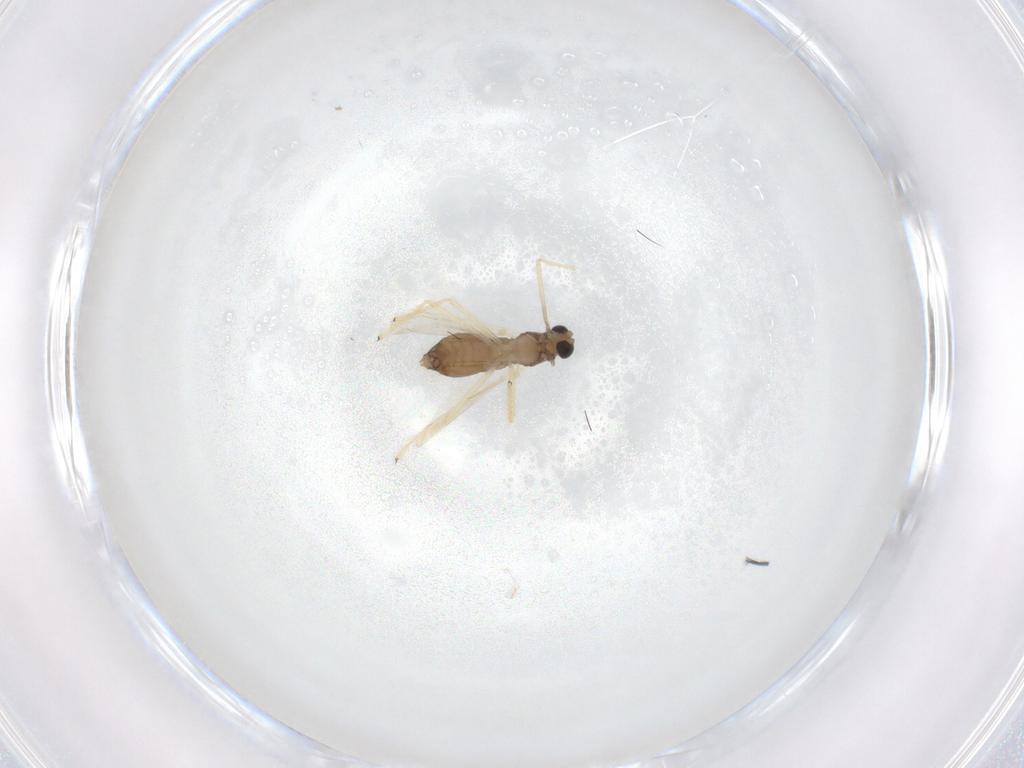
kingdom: Animalia
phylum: Arthropoda
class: Insecta
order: Diptera
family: Chironomidae
